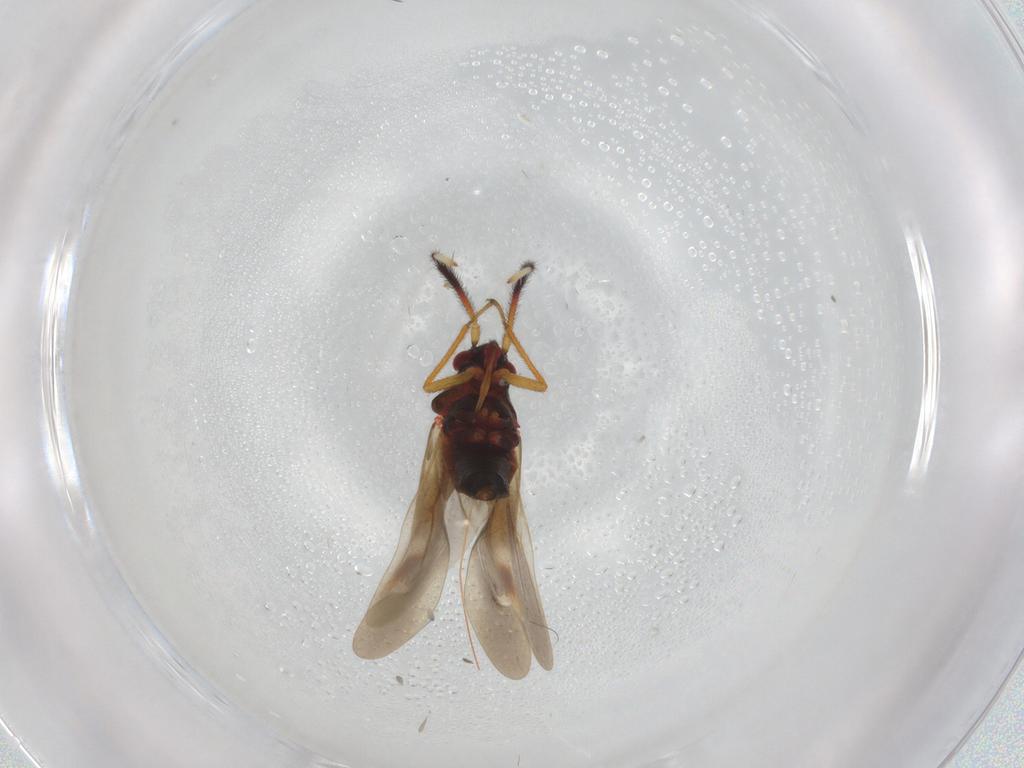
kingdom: Animalia
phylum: Arthropoda
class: Insecta
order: Hemiptera
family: Miridae
